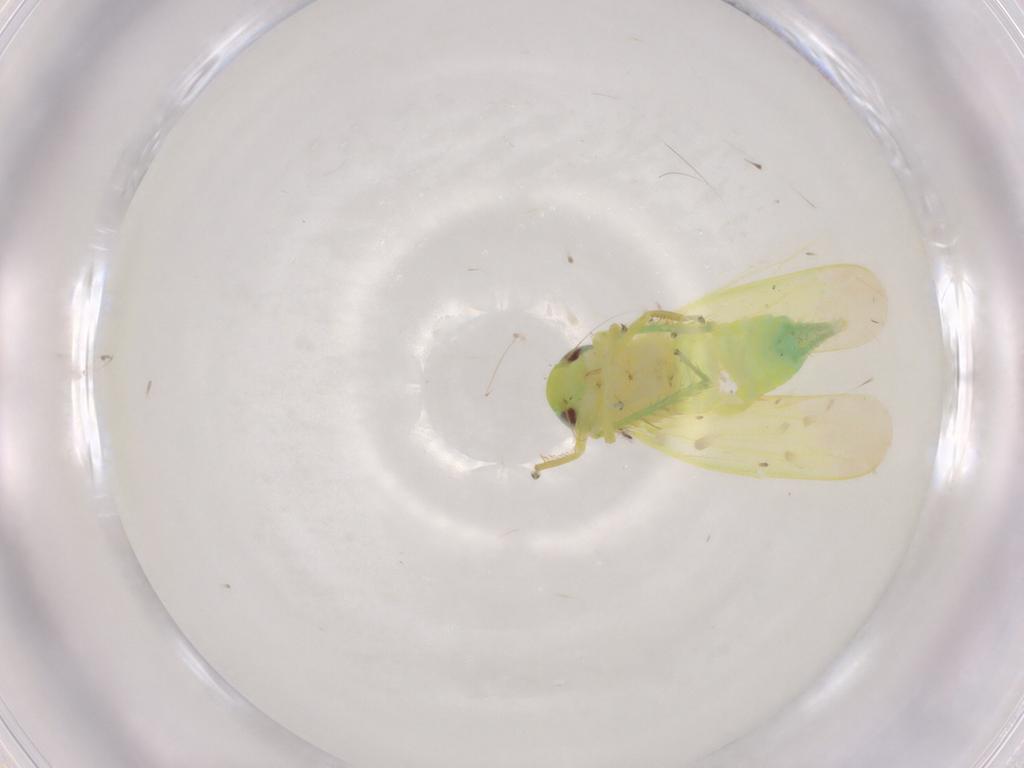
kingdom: Animalia
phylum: Arthropoda
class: Insecta
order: Hemiptera
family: Cicadellidae
